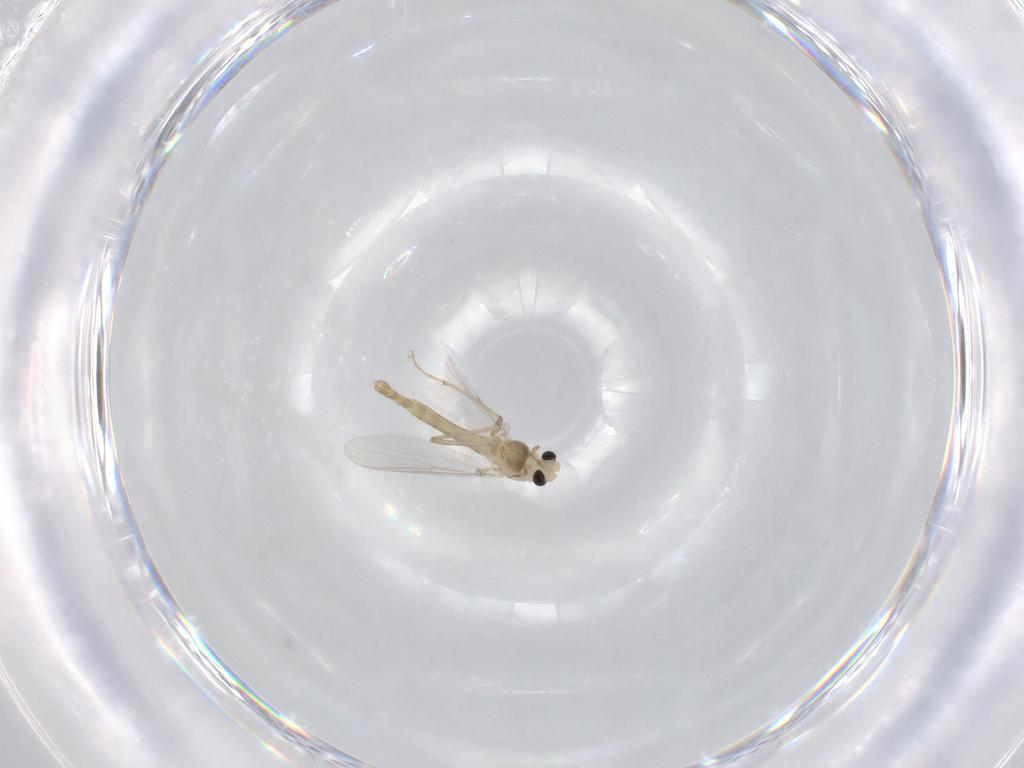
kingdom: Animalia
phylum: Arthropoda
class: Insecta
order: Diptera
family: Chironomidae
